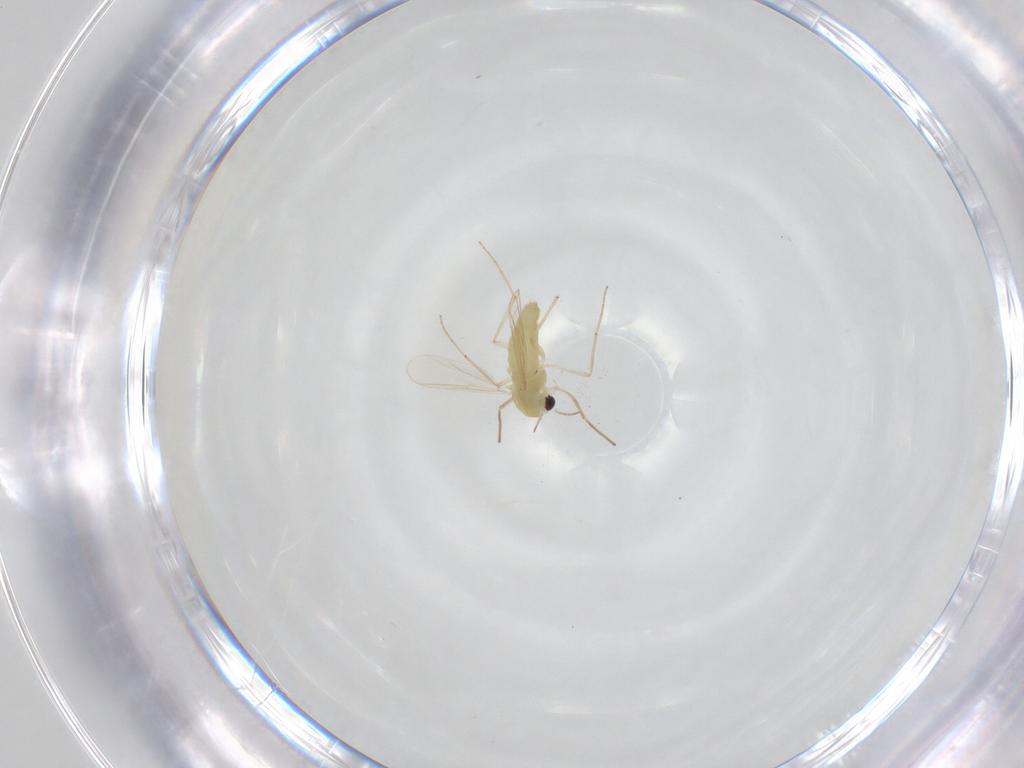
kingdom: Animalia
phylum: Arthropoda
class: Insecta
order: Diptera
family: Chironomidae
